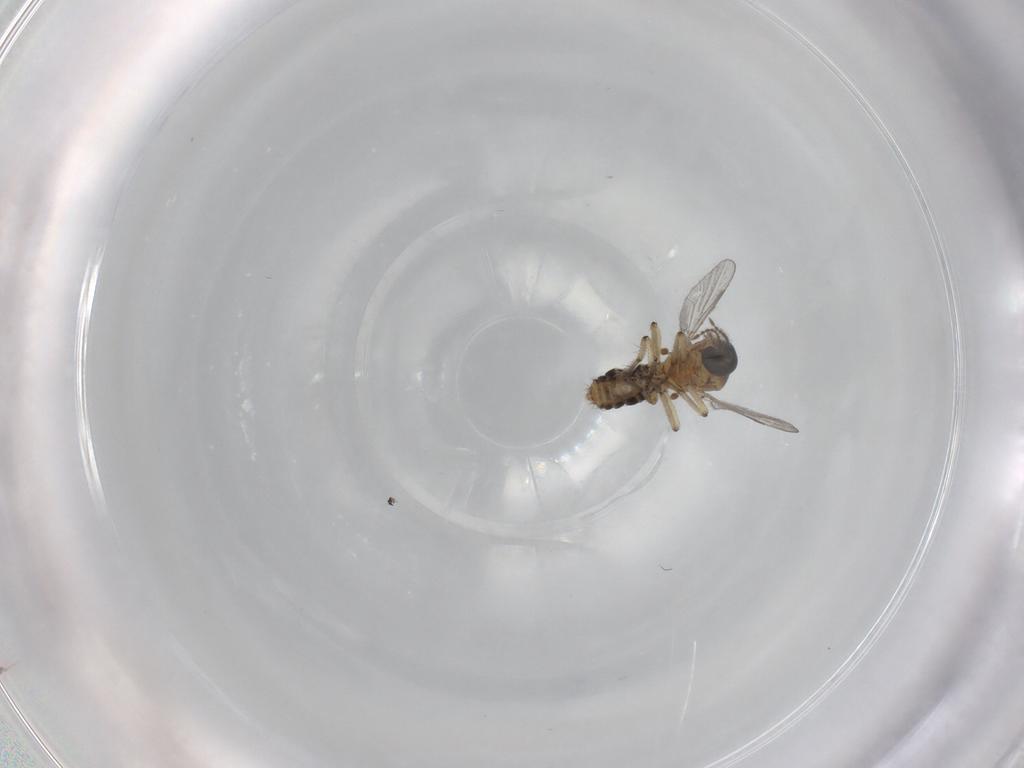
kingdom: Animalia
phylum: Arthropoda
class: Insecta
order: Diptera
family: Ceratopogonidae
